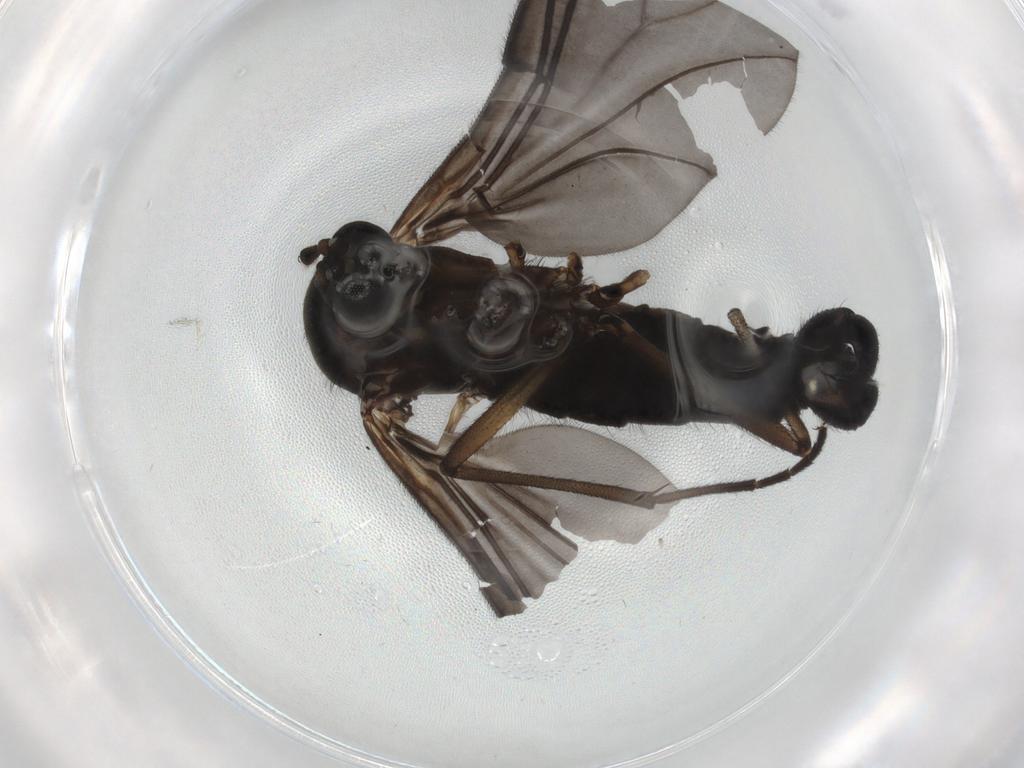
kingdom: Animalia
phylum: Arthropoda
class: Insecta
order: Diptera
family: Sciaridae
